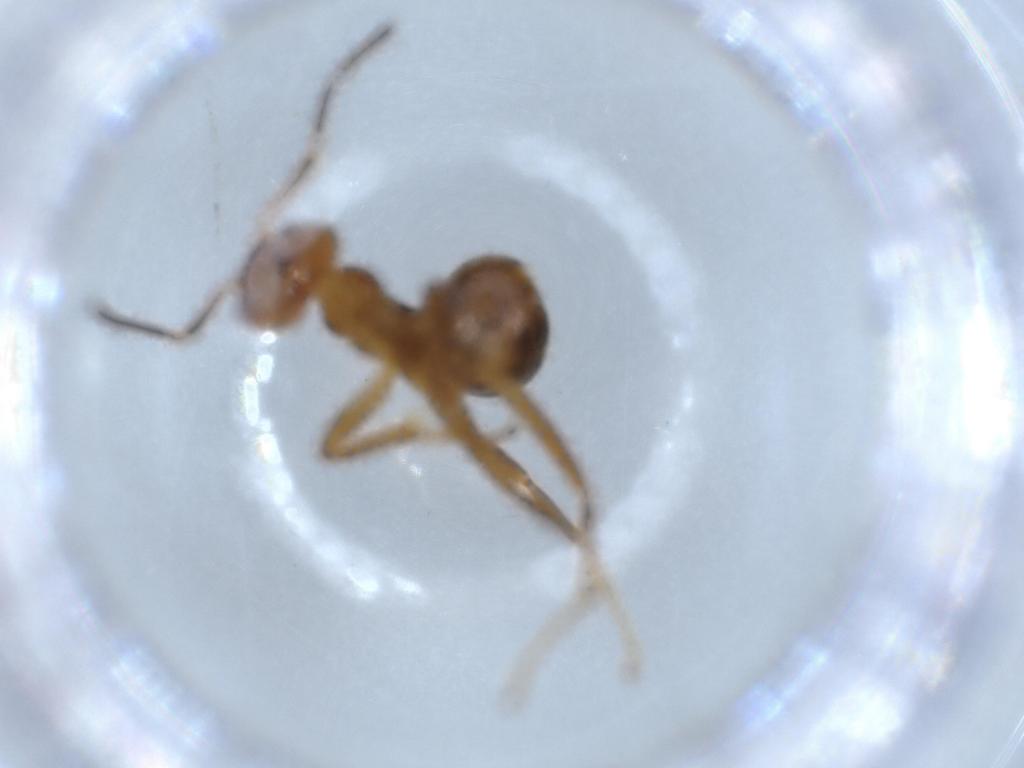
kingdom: Animalia
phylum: Arthropoda
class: Insecta
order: Hymenoptera
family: Formicidae
